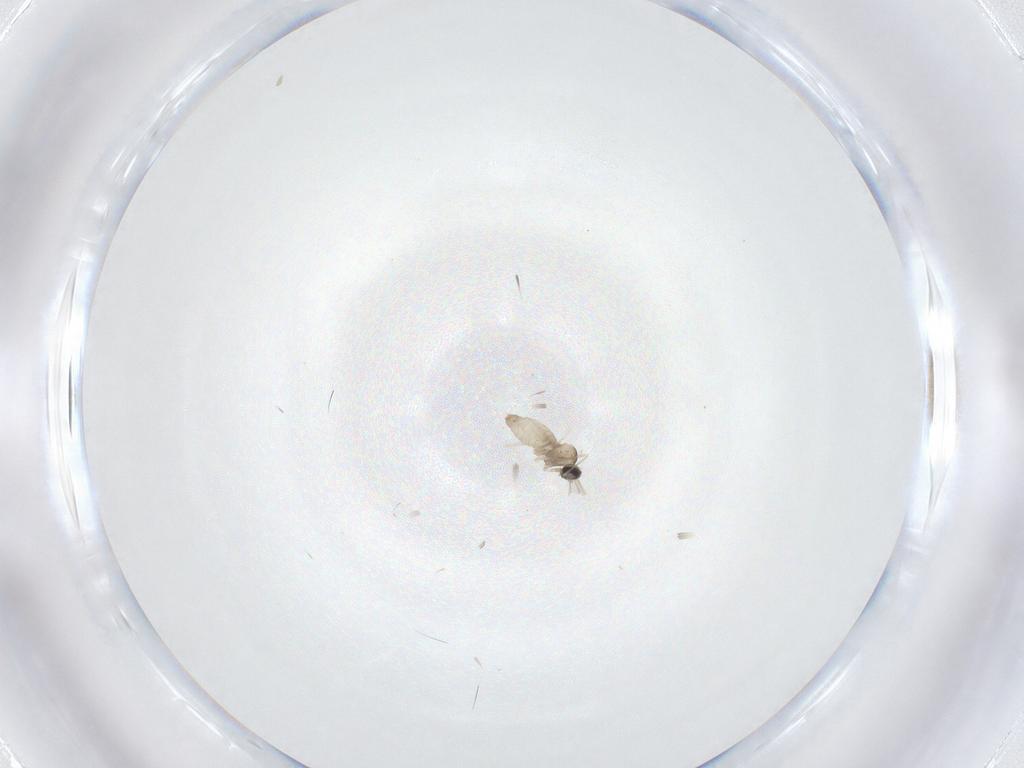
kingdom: Animalia
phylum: Arthropoda
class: Insecta
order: Diptera
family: Cecidomyiidae
